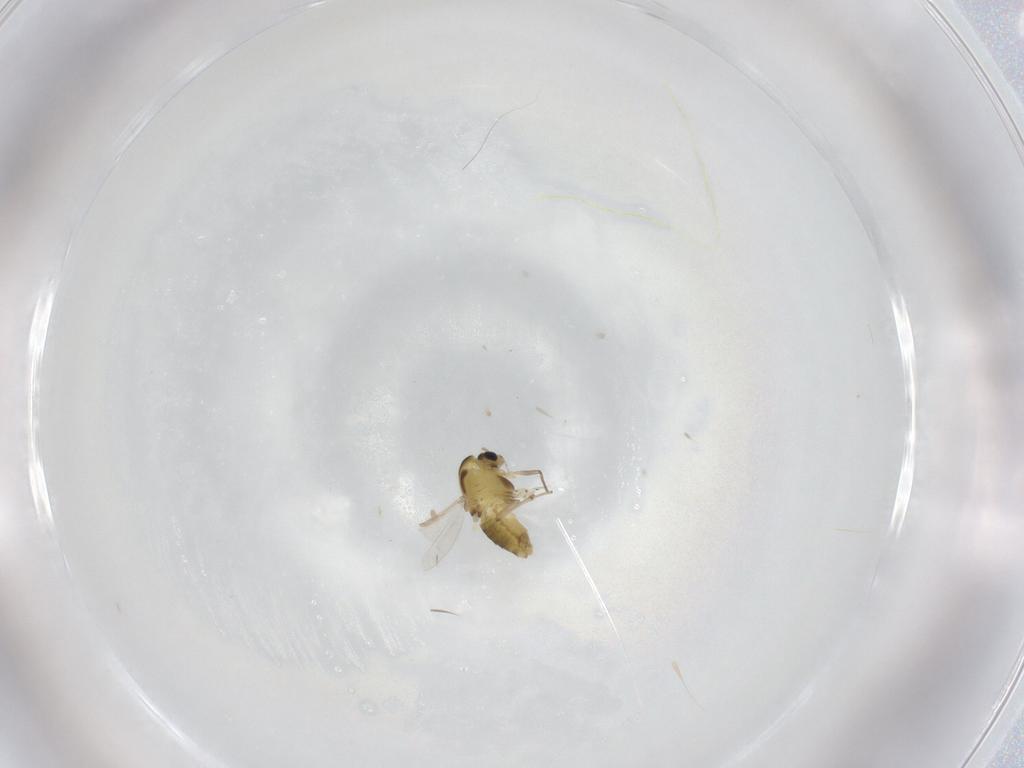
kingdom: Animalia
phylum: Arthropoda
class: Insecta
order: Diptera
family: Chironomidae
